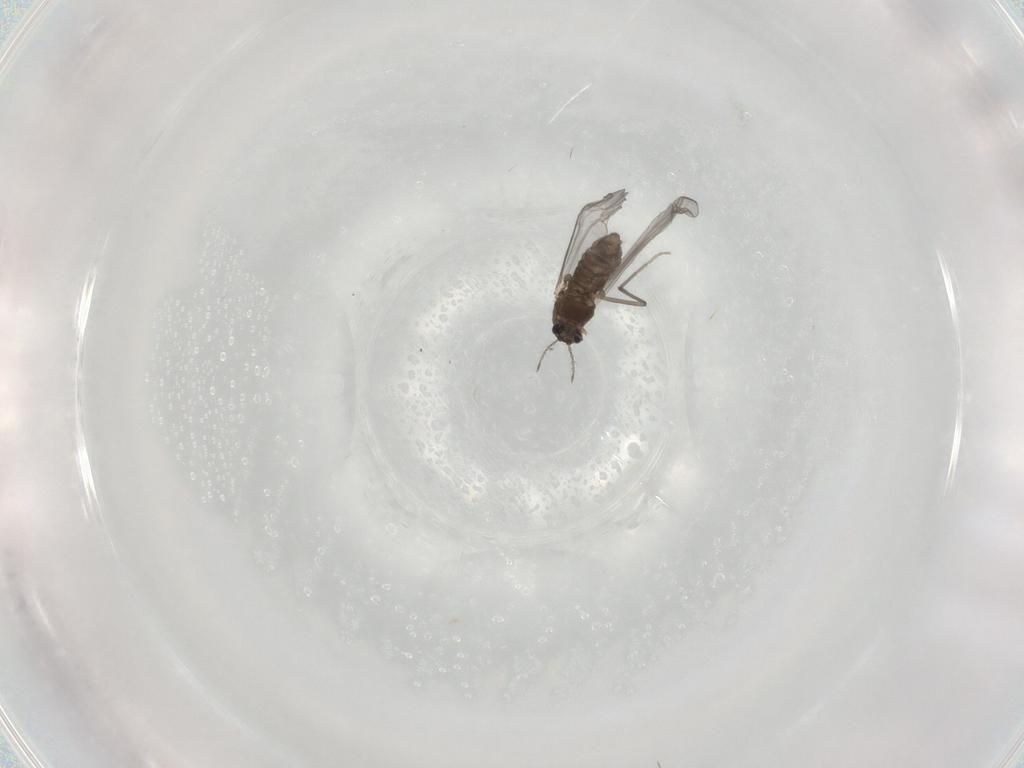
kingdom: Animalia
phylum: Arthropoda
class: Insecta
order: Diptera
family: Chironomidae
